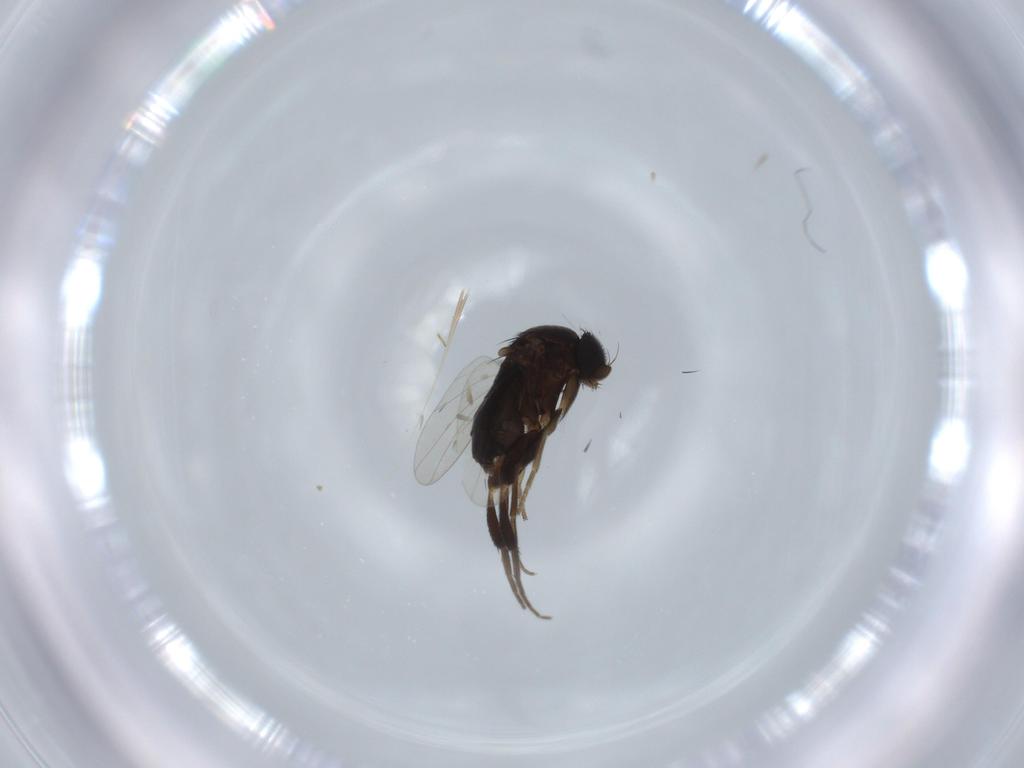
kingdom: Animalia
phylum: Arthropoda
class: Insecta
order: Diptera
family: Phoridae
